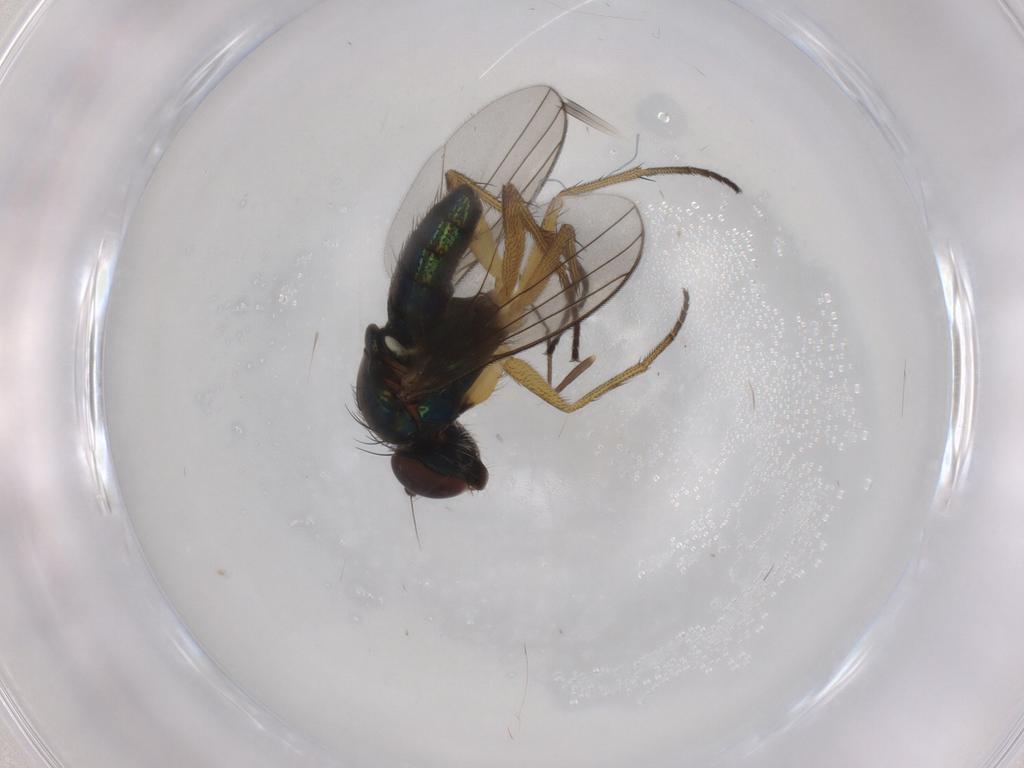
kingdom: Animalia
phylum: Arthropoda
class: Insecta
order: Diptera
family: Dolichopodidae
